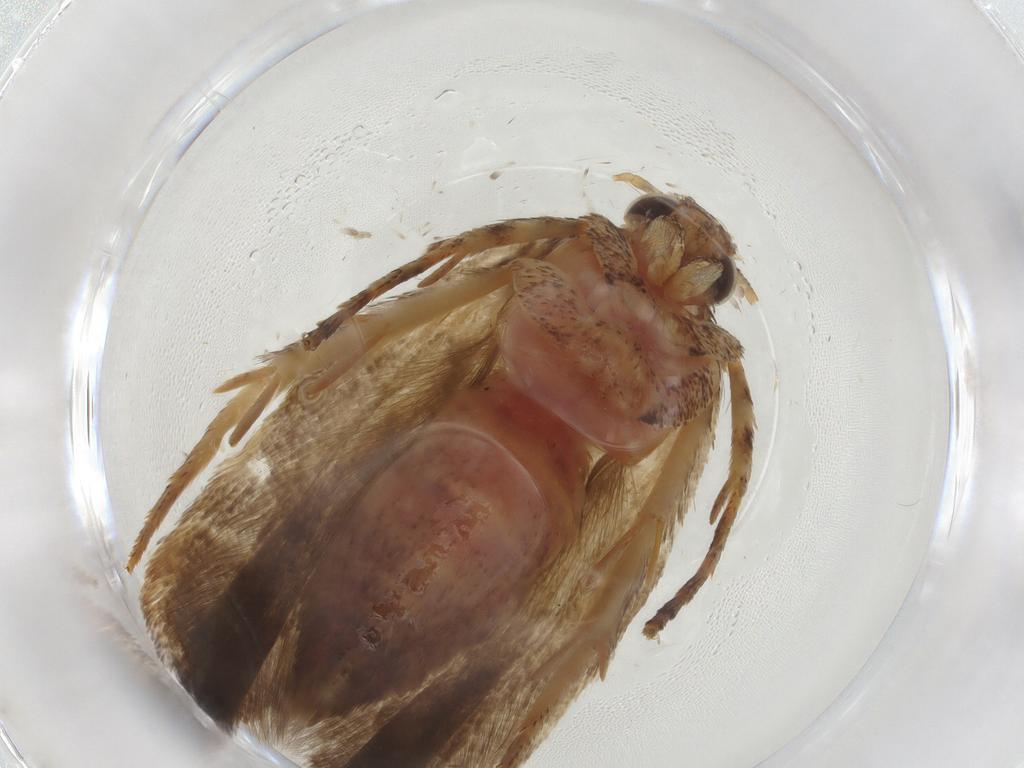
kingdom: Animalia
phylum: Arthropoda
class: Insecta
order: Lepidoptera
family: Gelechiidae
